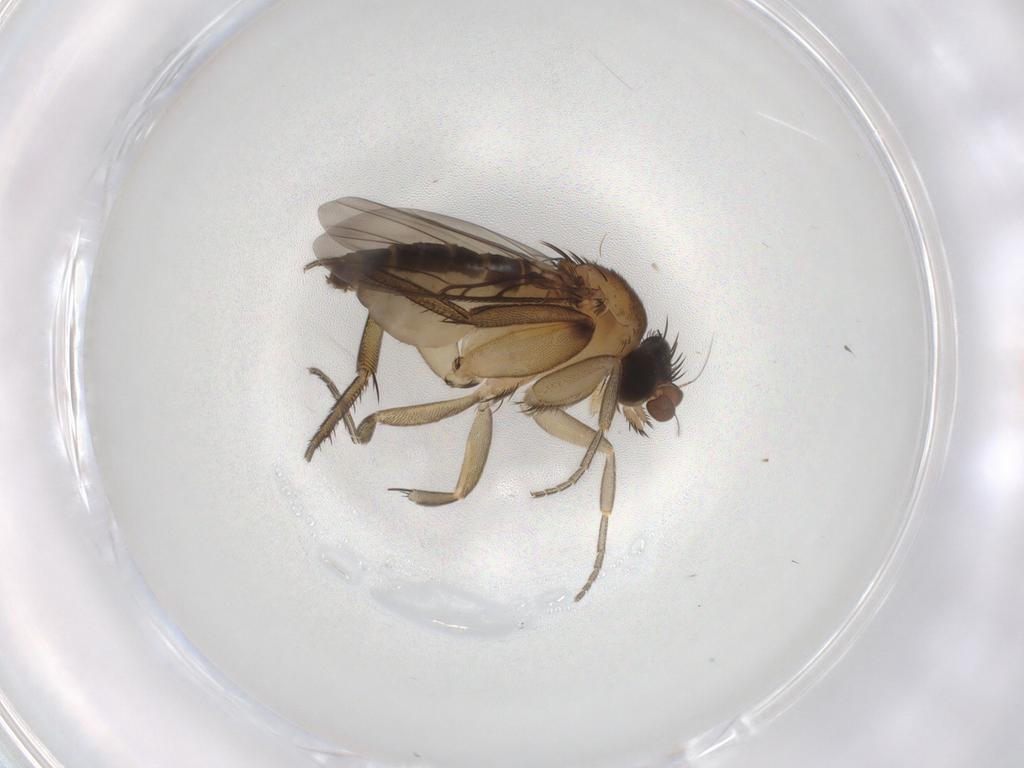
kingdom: Animalia
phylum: Arthropoda
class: Insecta
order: Diptera
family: Phoridae
